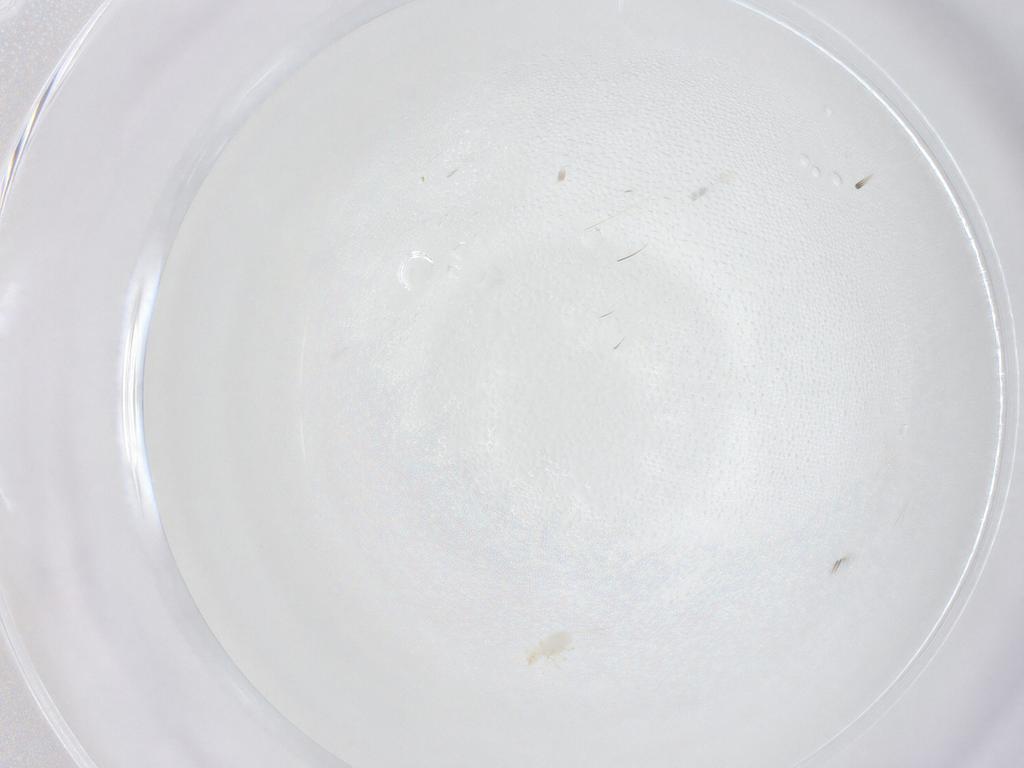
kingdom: Animalia
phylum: Arthropoda
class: Arachnida
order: Trombidiformes
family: Erythraeidae
